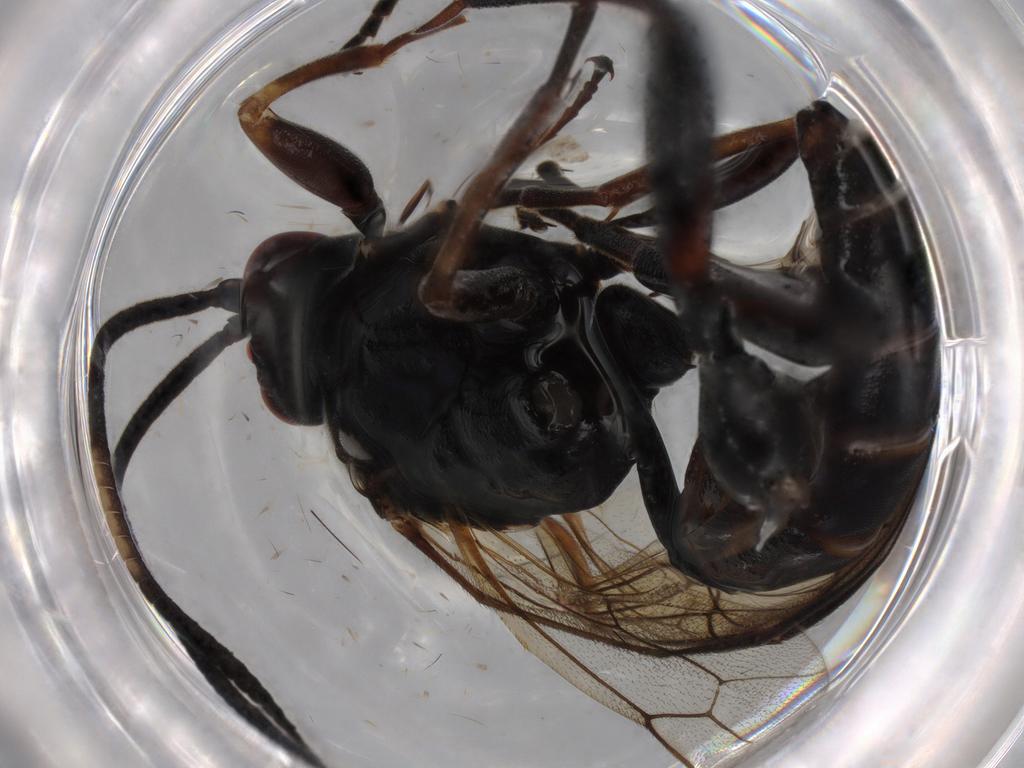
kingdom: Animalia
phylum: Arthropoda
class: Insecta
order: Hymenoptera
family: Ichneumonidae
